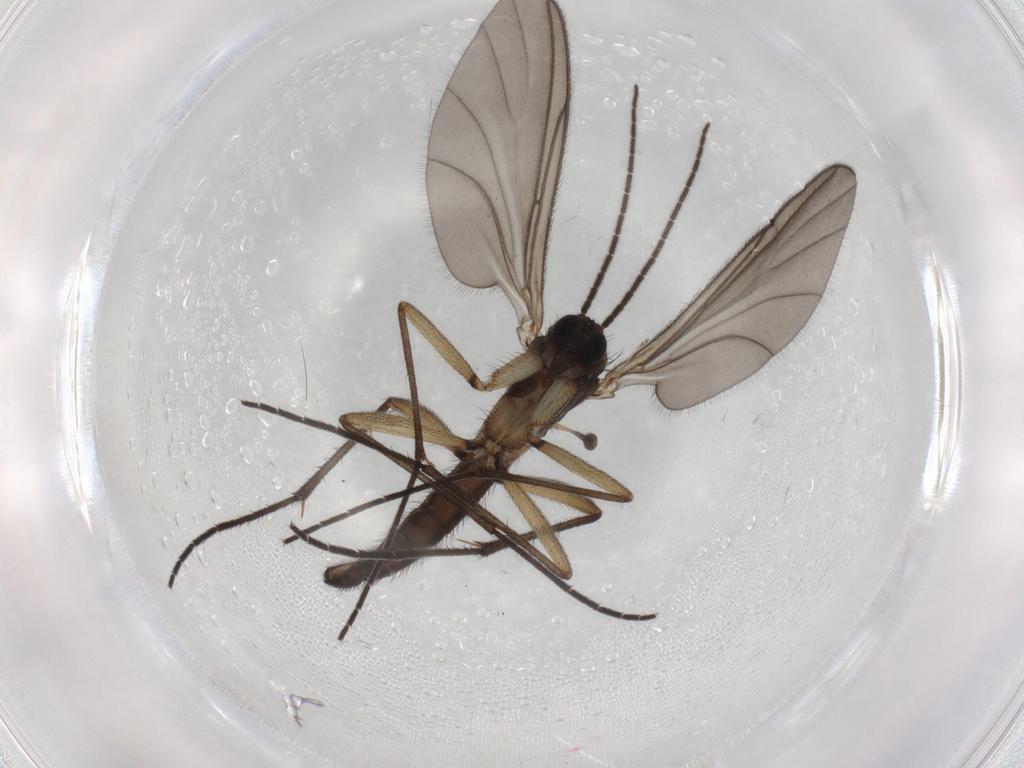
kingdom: Animalia
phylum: Arthropoda
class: Insecta
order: Diptera
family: Sciaridae
